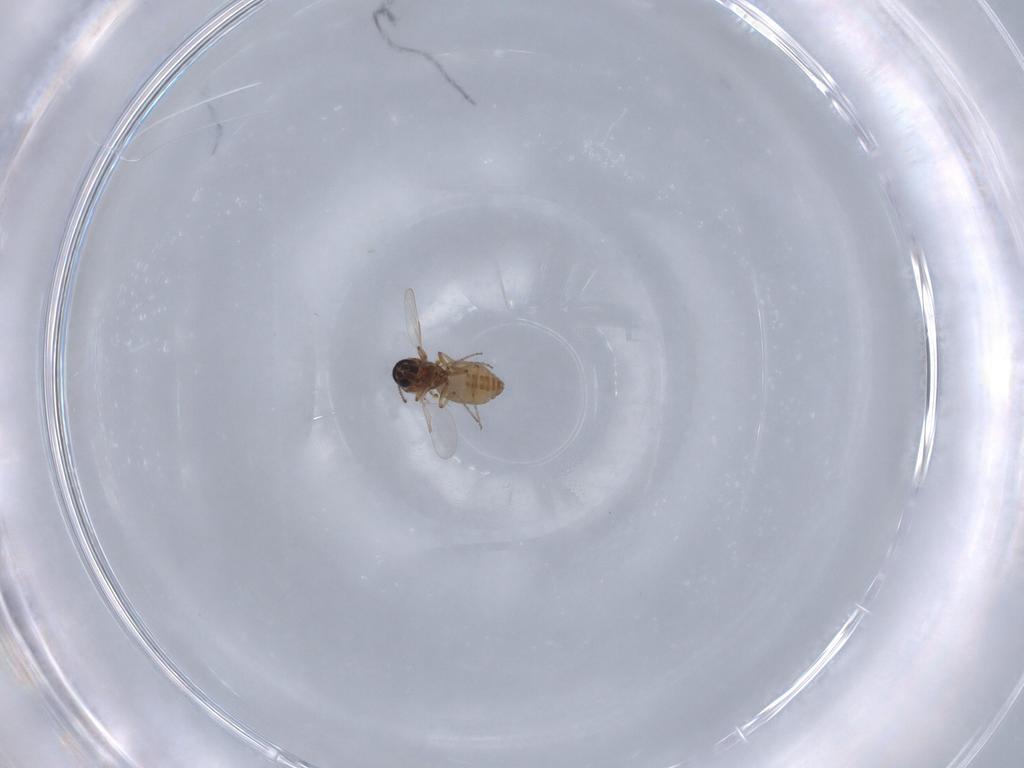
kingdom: Animalia
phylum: Arthropoda
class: Insecta
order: Diptera
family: Ceratopogonidae
